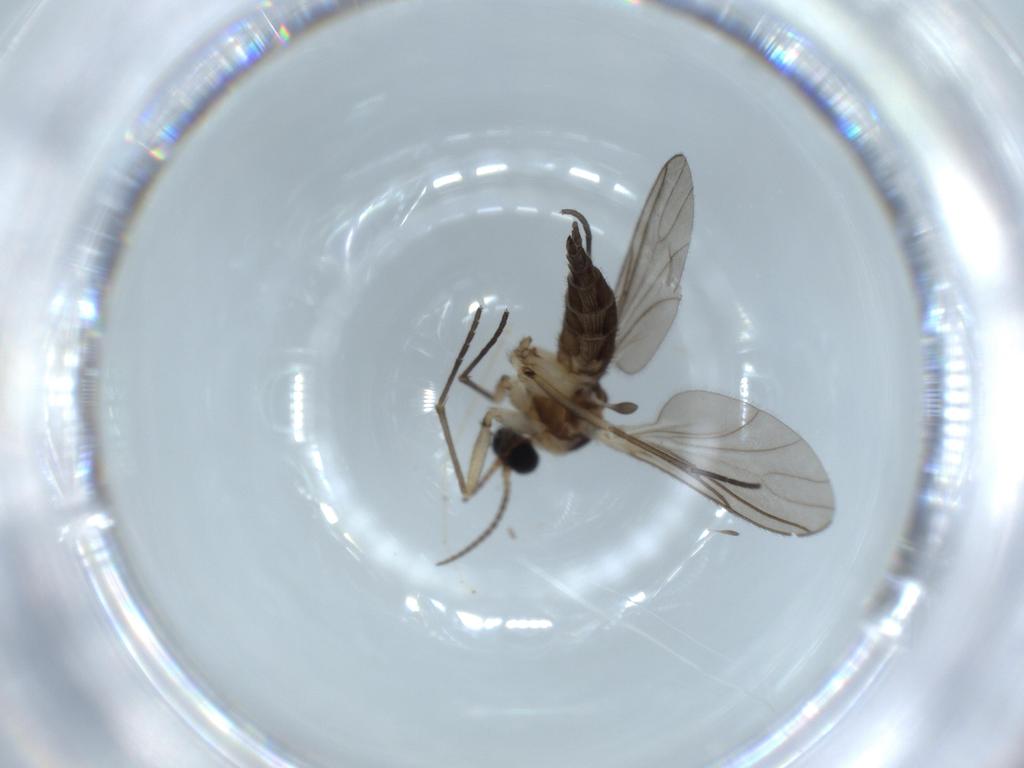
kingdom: Animalia
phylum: Arthropoda
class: Insecta
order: Diptera
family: Sciaridae
